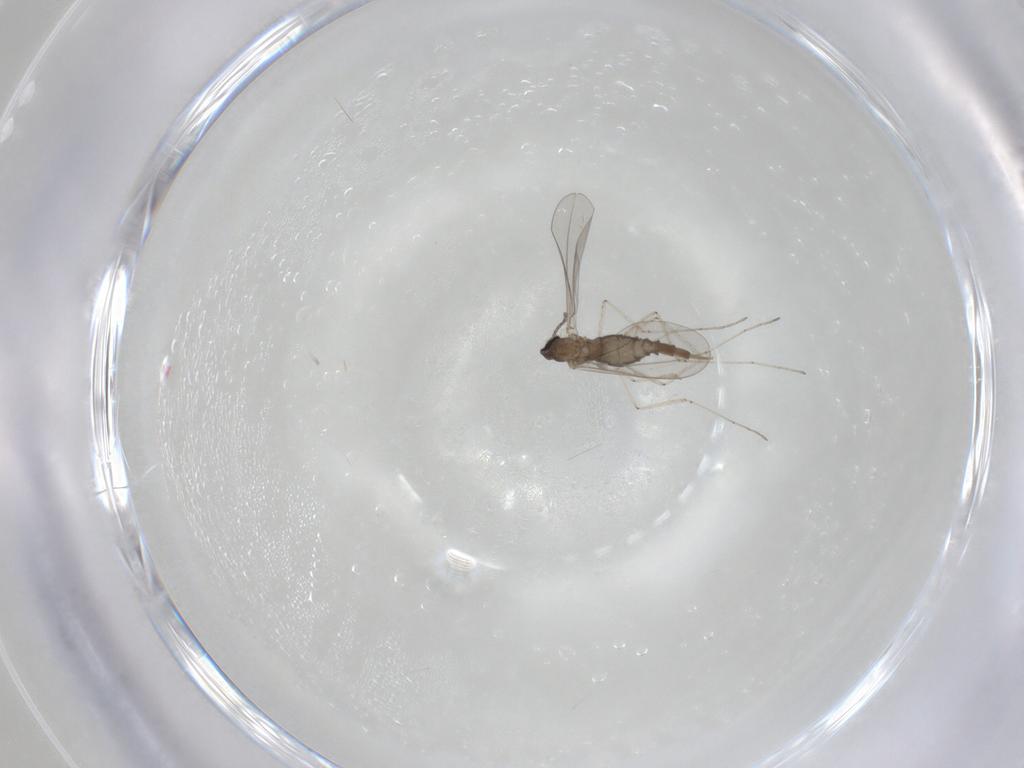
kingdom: Animalia
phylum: Arthropoda
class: Insecta
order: Diptera
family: Cecidomyiidae
